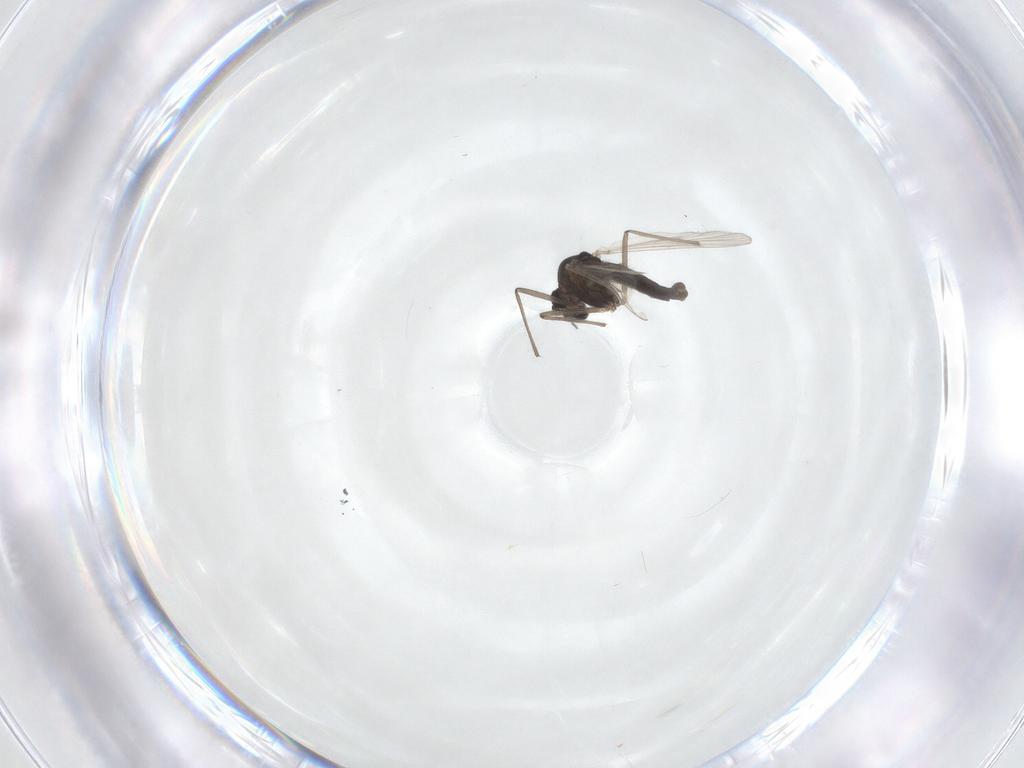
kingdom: Animalia
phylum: Arthropoda
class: Insecta
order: Diptera
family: Chironomidae
